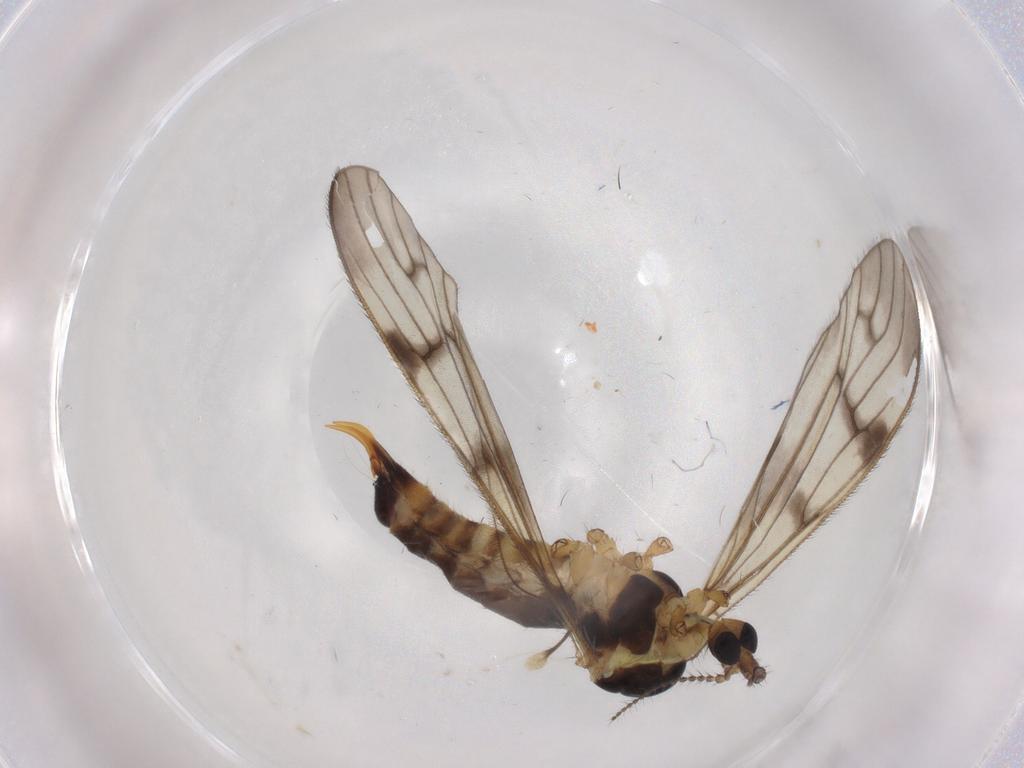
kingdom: Animalia
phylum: Arthropoda
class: Insecta
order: Diptera
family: Limoniidae
